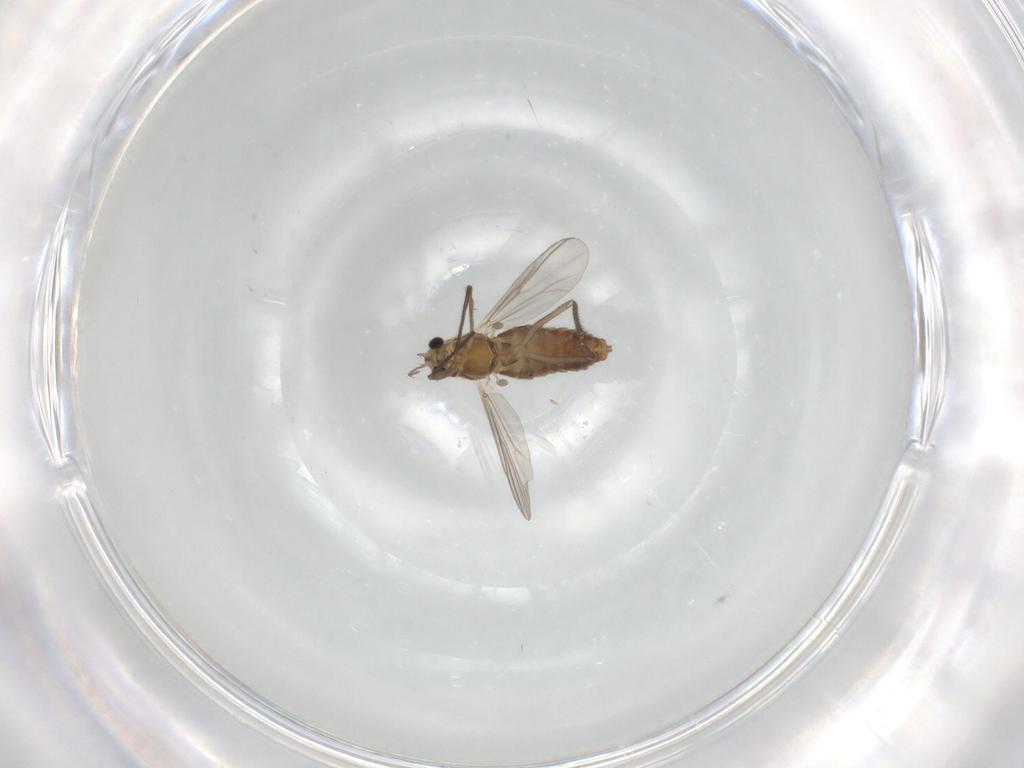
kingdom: Animalia
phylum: Arthropoda
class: Insecta
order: Diptera
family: Chironomidae
